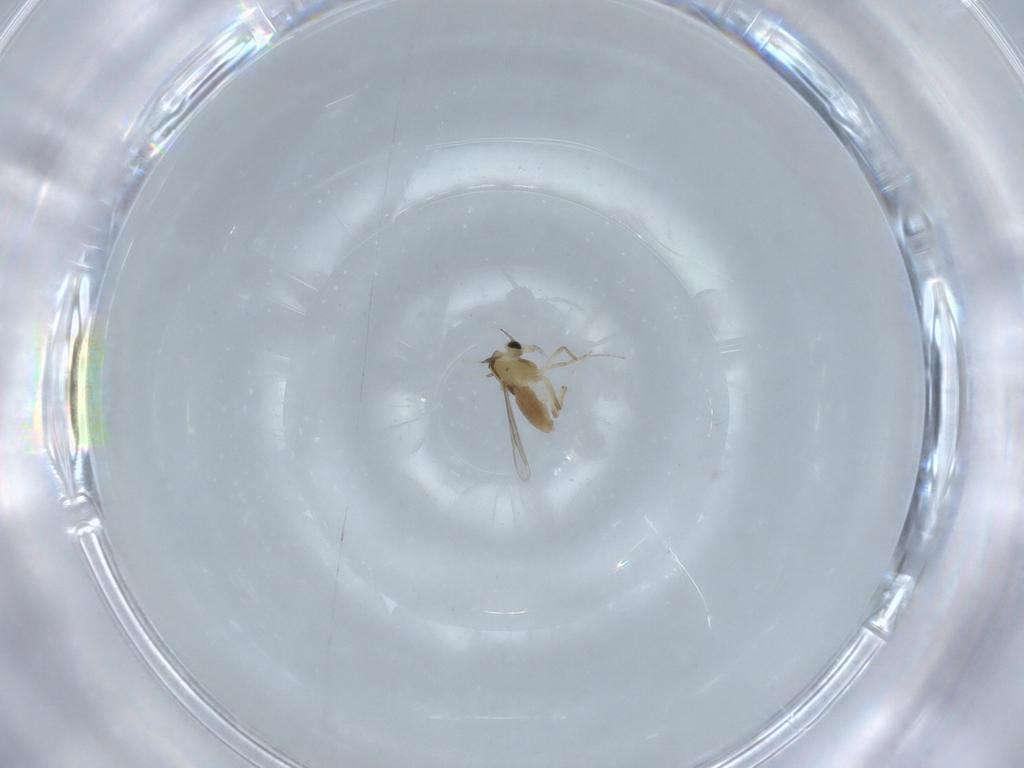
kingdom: Animalia
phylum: Arthropoda
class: Insecta
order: Diptera
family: Chironomidae
